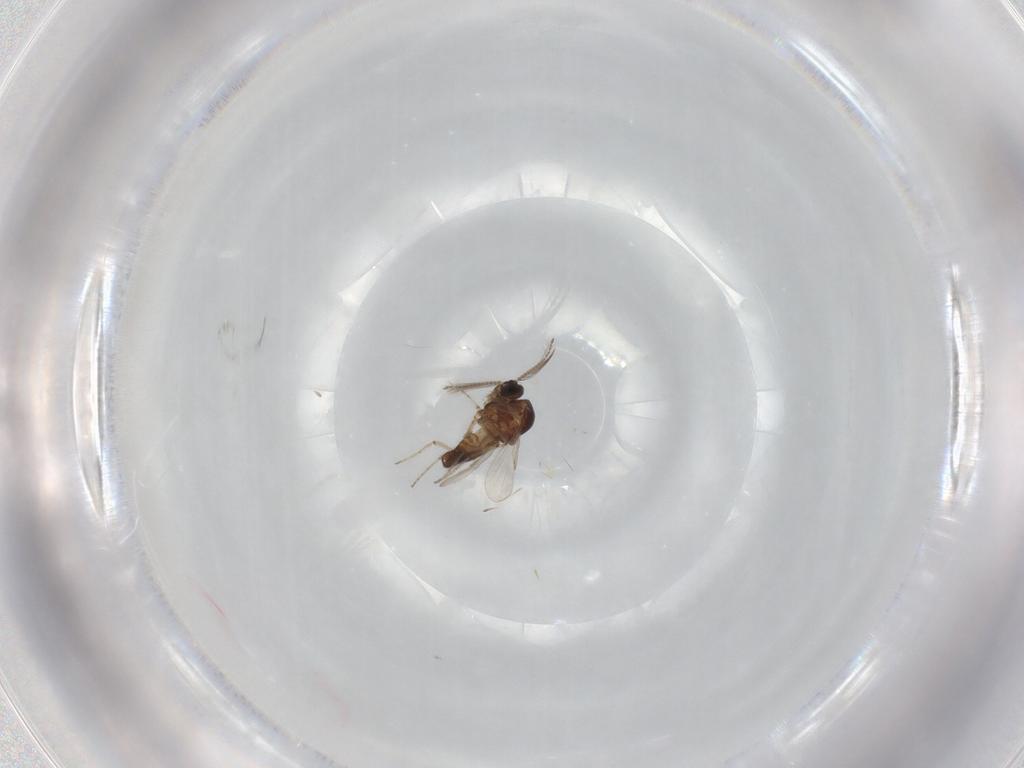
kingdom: Animalia
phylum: Arthropoda
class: Insecta
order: Diptera
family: Ceratopogonidae
